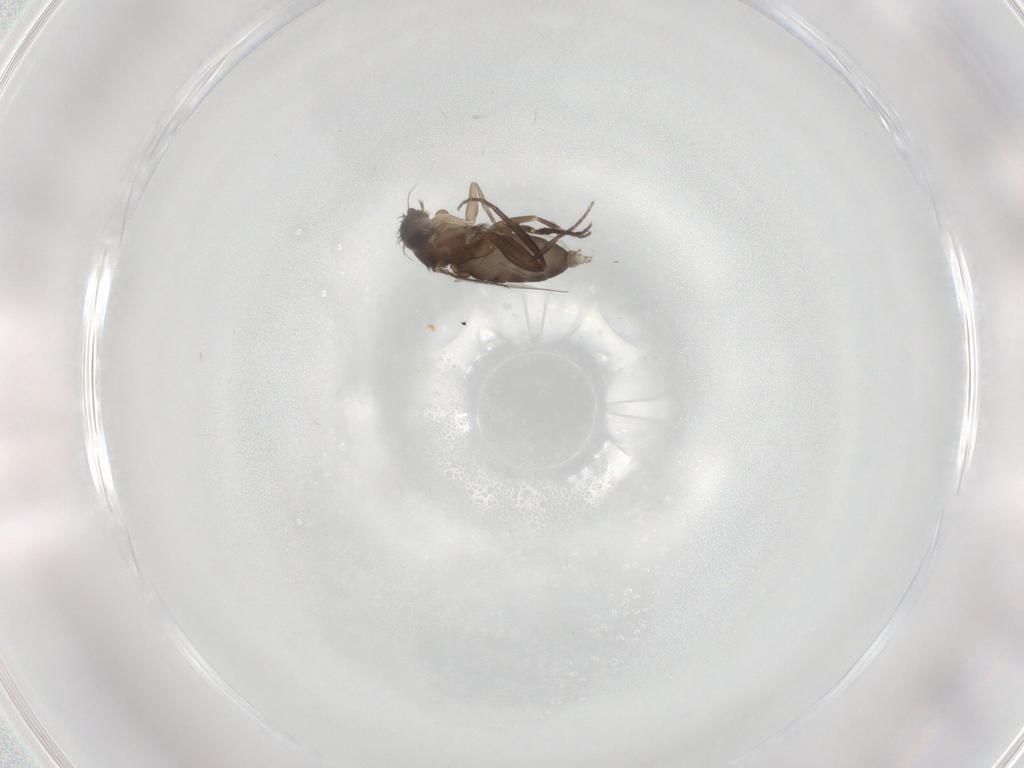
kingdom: Animalia
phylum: Arthropoda
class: Insecta
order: Diptera
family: Phoridae
